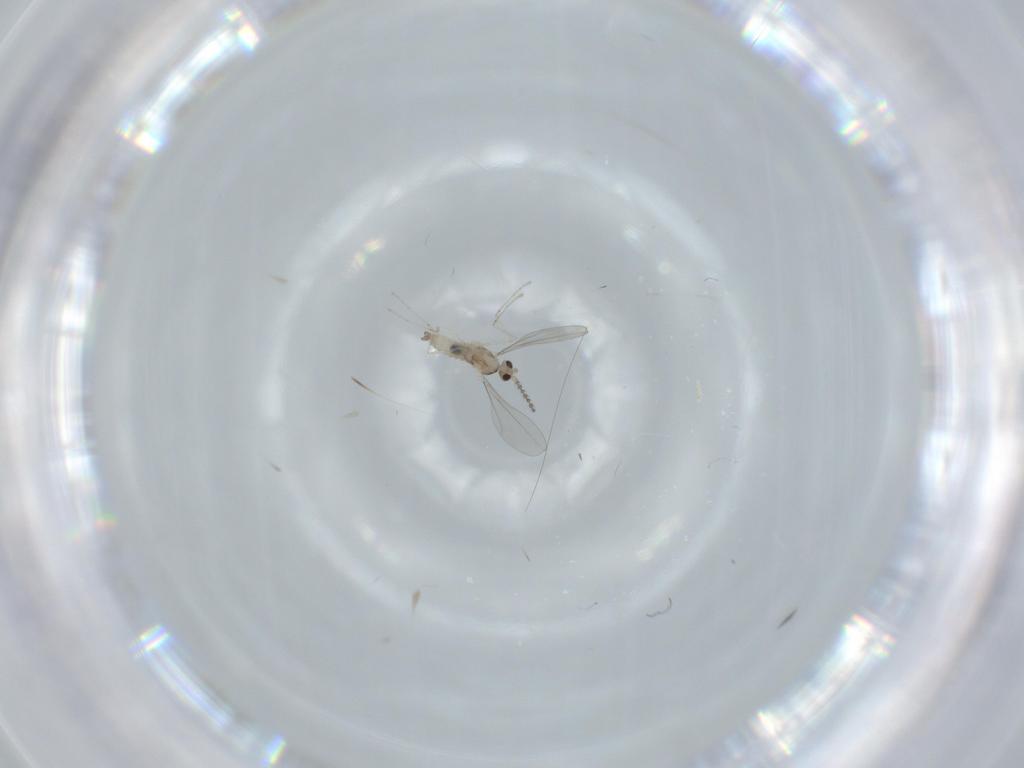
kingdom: Animalia
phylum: Arthropoda
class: Insecta
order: Diptera
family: Cecidomyiidae
